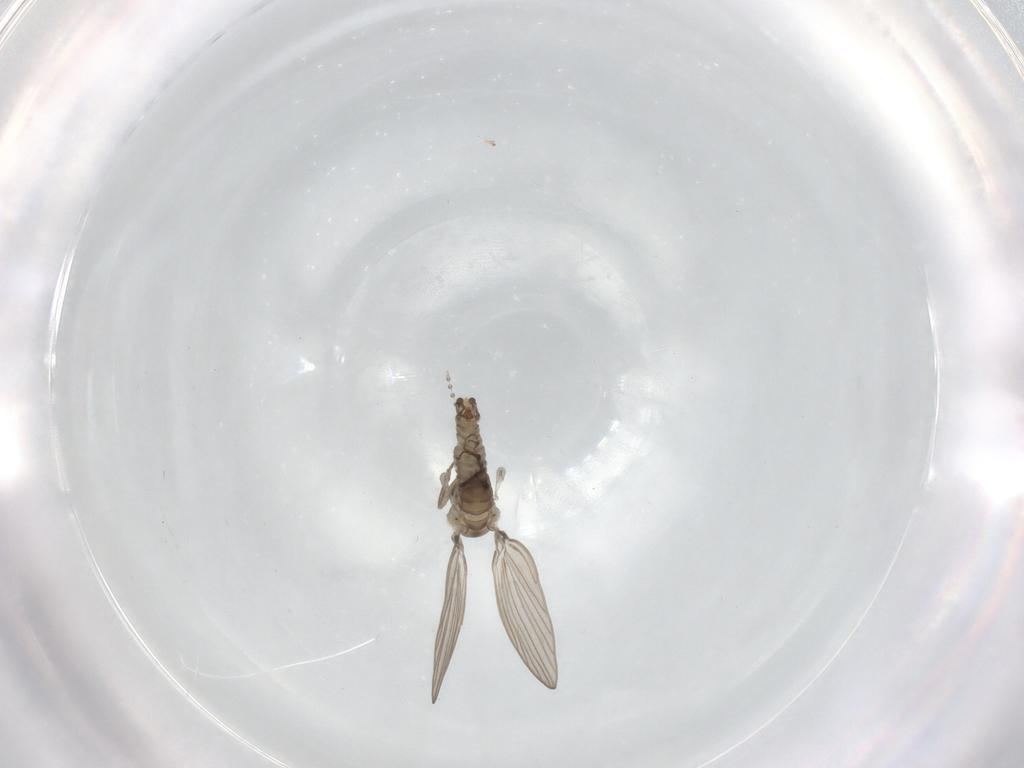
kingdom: Animalia
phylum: Arthropoda
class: Insecta
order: Diptera
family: Psychodidae
